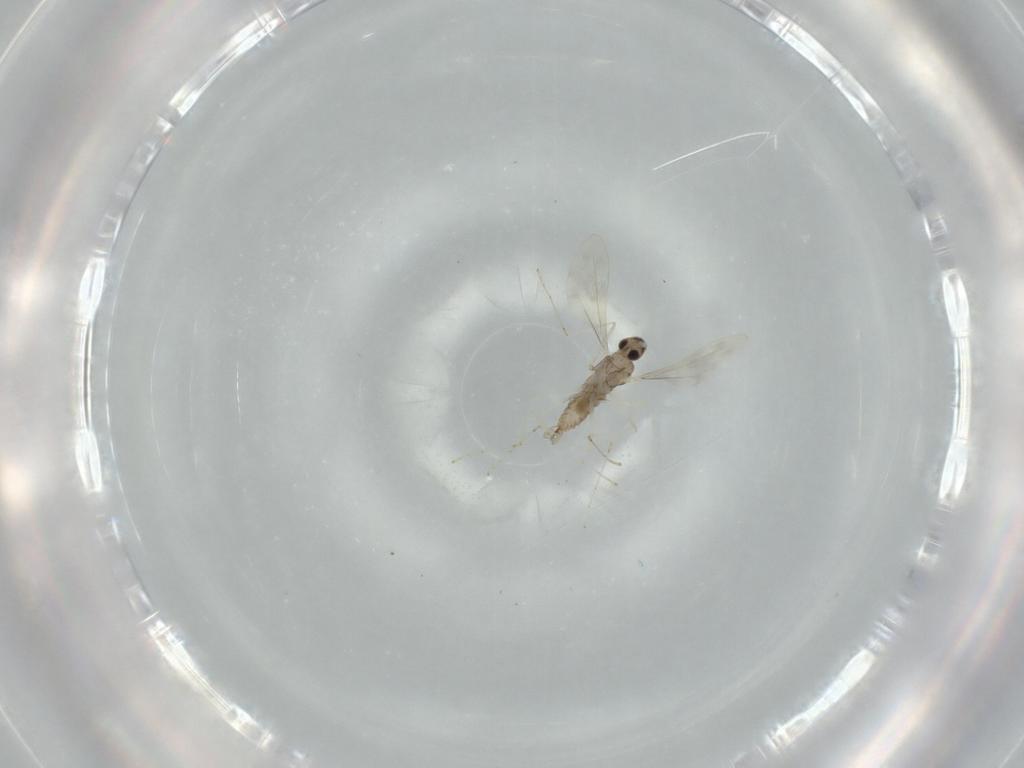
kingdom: Animalia
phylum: Arthropoda
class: Insecta
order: Diptera
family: Cecidomyiidae
